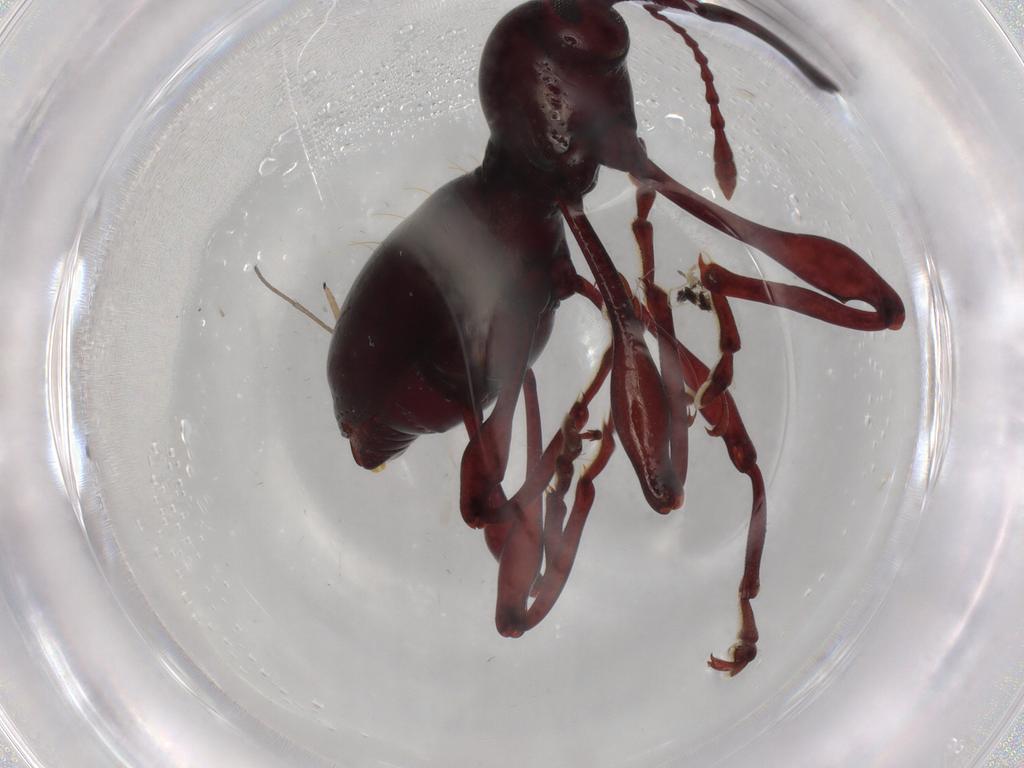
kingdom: Animalia
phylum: Arthropoda
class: Insecta
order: Coleoptera
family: Curculionidae
